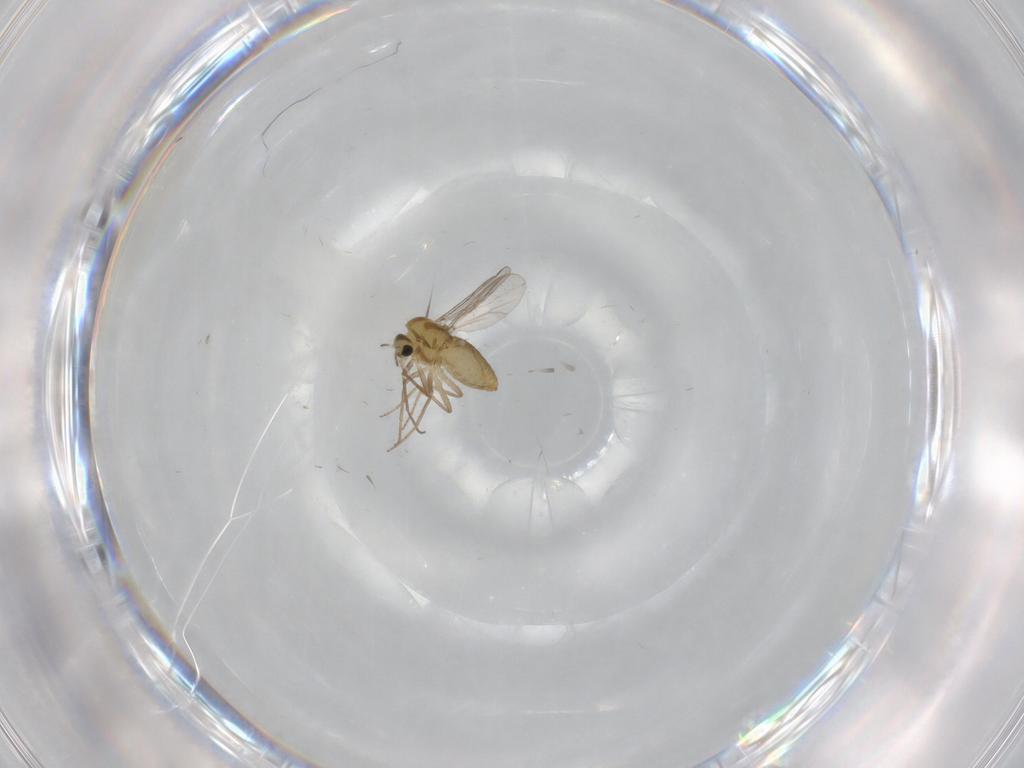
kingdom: Animalia
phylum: Arthropoda
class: Insecta
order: Diptera
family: Chironomidae
